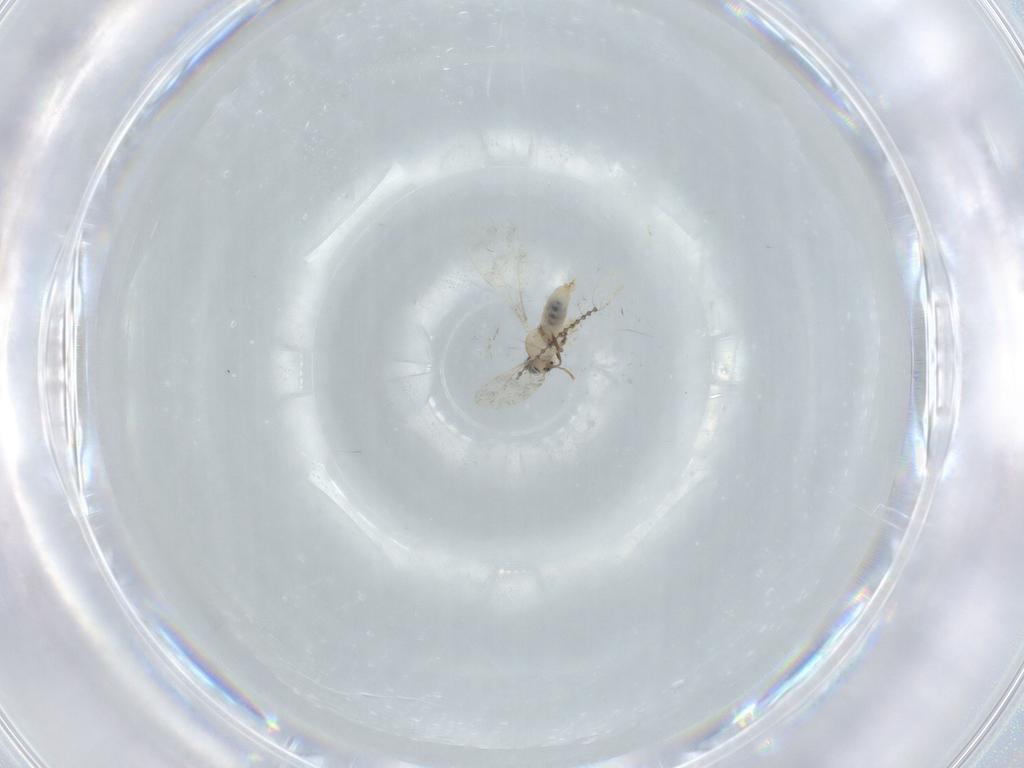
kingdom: Animalia
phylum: Arthropoda
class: Insecta
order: Diptera
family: Cecidomyiidae
